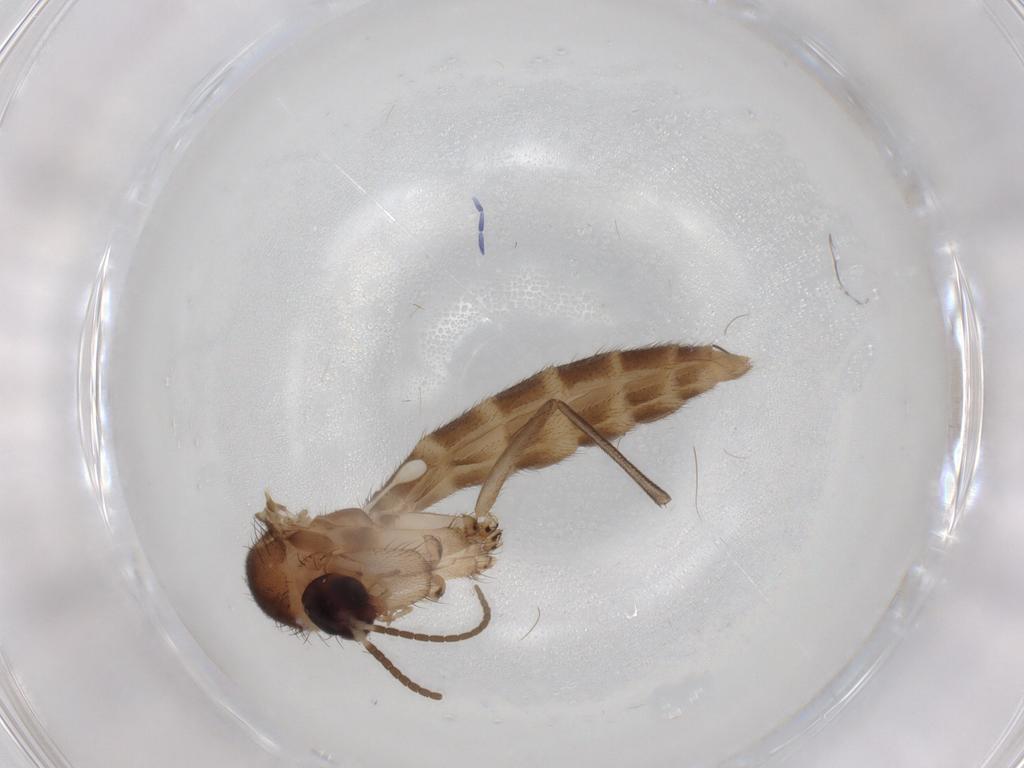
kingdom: Animalia
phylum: Arthropoda
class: Insecta
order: Diptera
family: Mycetophilidae
